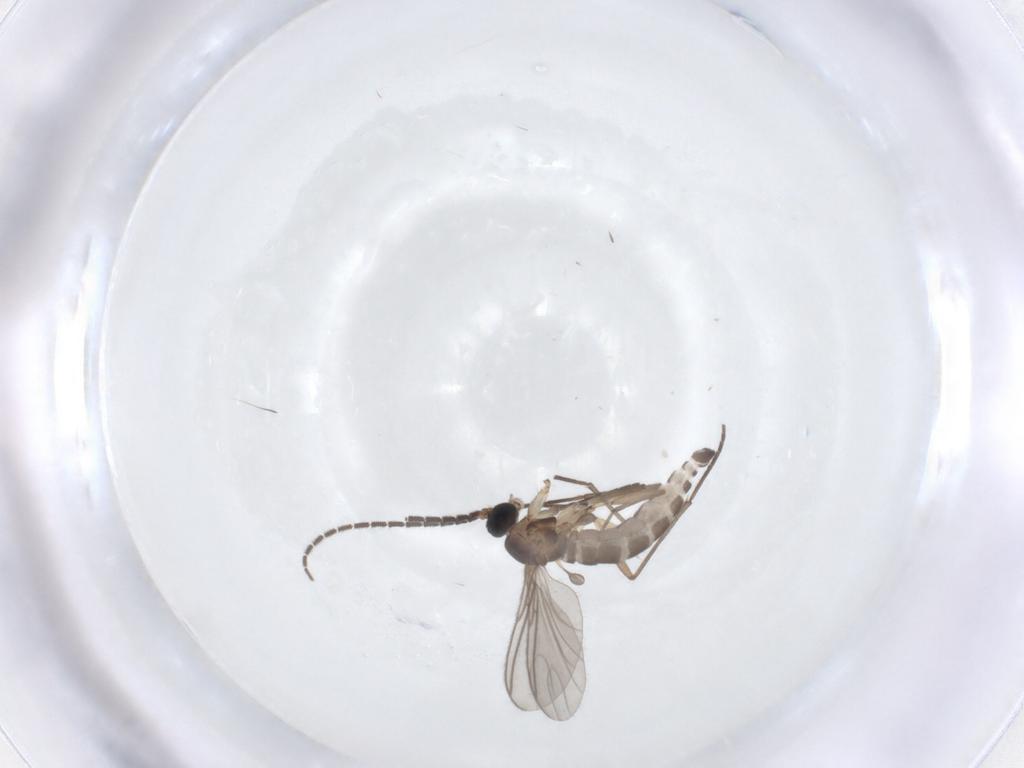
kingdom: Animalia
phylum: Arthropoda
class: Insecta
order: Diptera
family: Sciaridae
